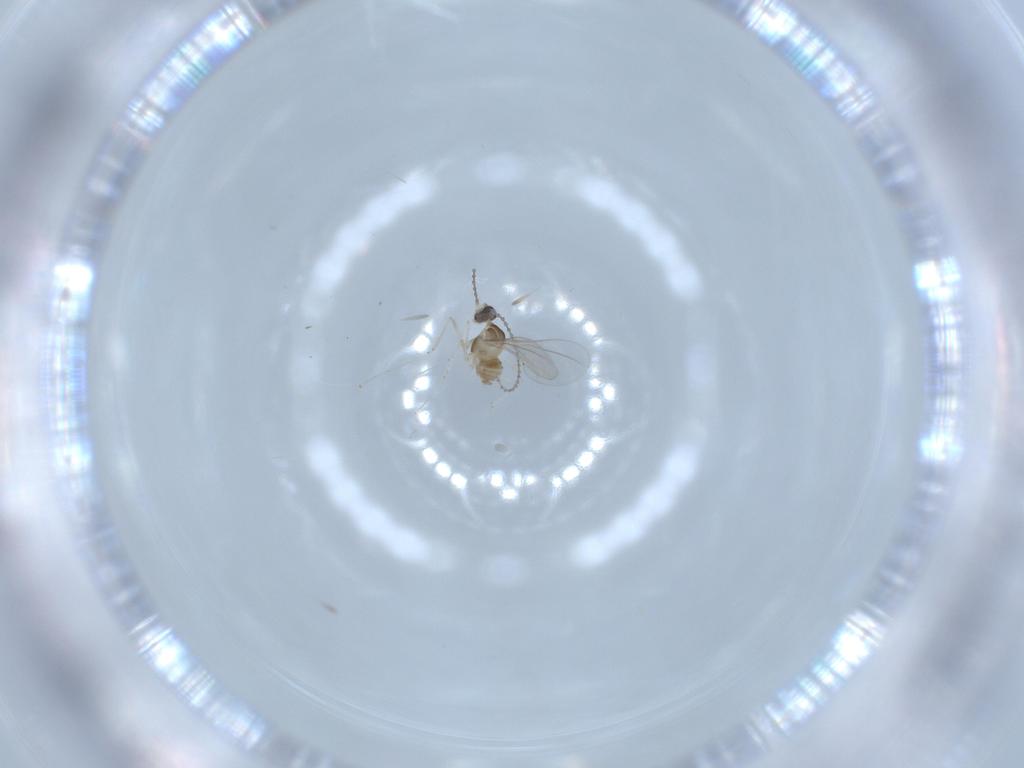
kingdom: Animalia
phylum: Arthropoda
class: Insecta
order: Diptera
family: Cecidomyiidae
